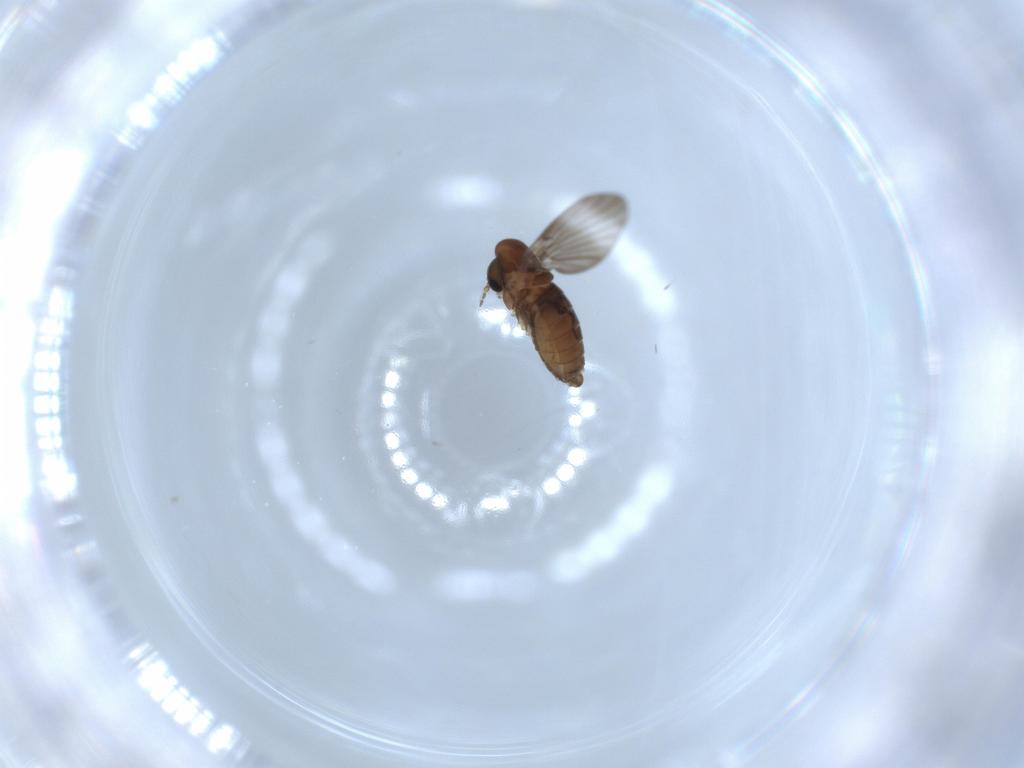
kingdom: Animalia
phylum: Arthropoda
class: Insecta
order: Diptera
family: Psychodidae
